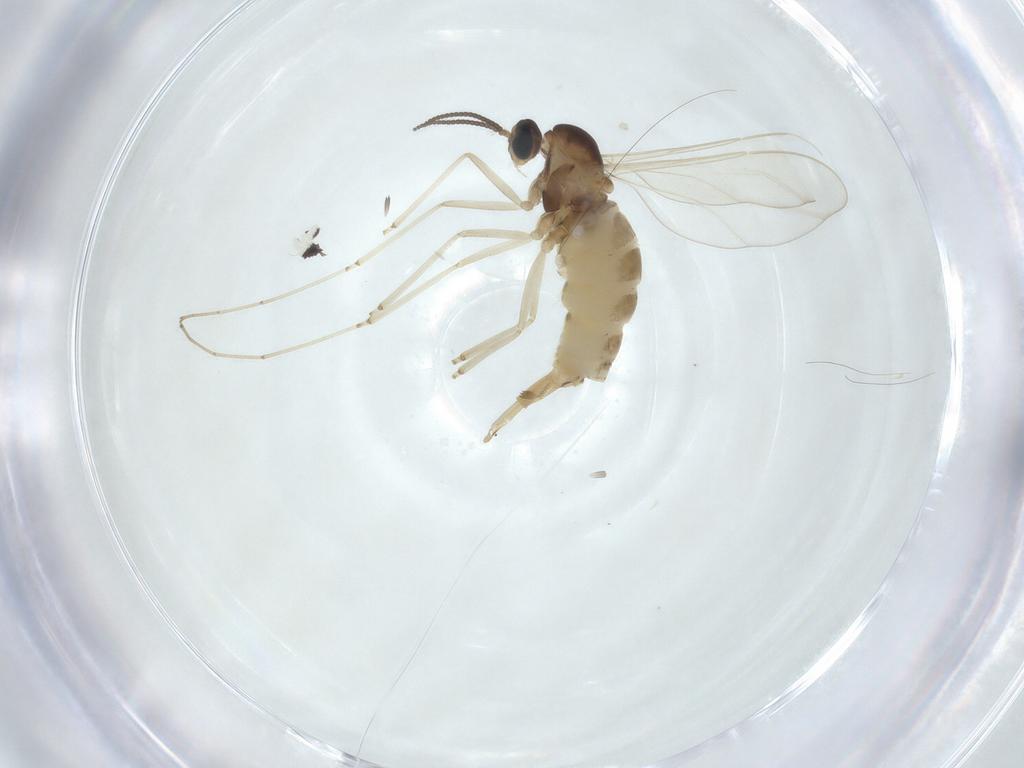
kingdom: Animalia
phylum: Arthropoda
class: Insecta
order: Diptera
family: Cecidomyiidae
